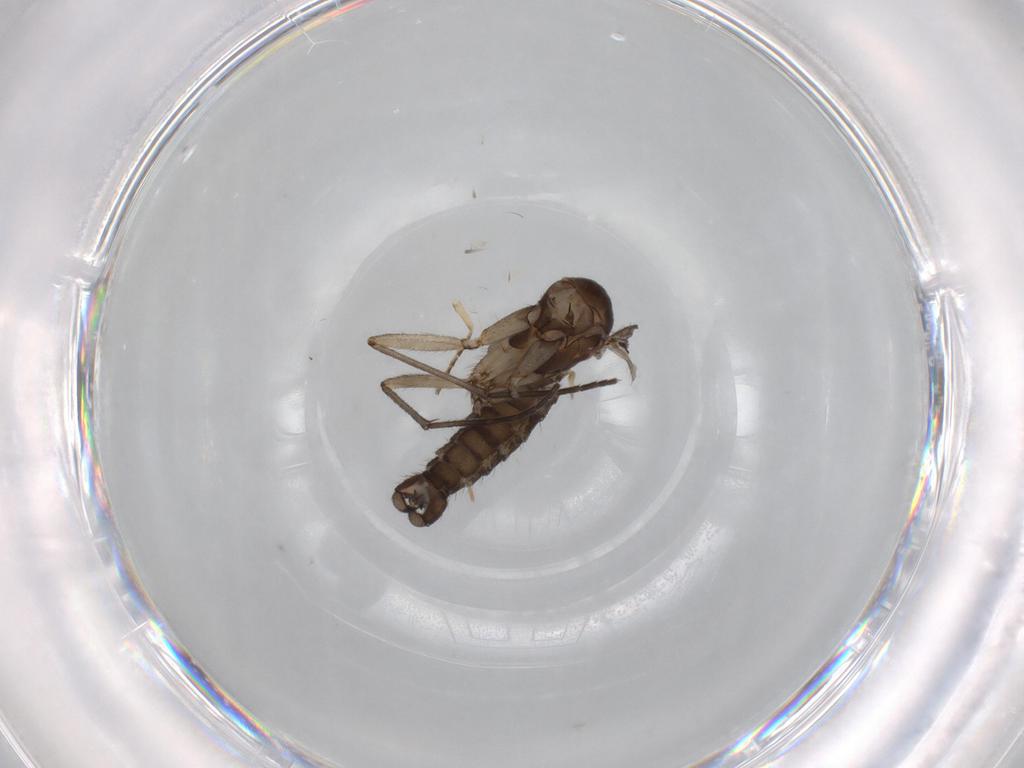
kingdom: Animalia
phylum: Arthropoda
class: Insecta
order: Diptera
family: Sciaridae
